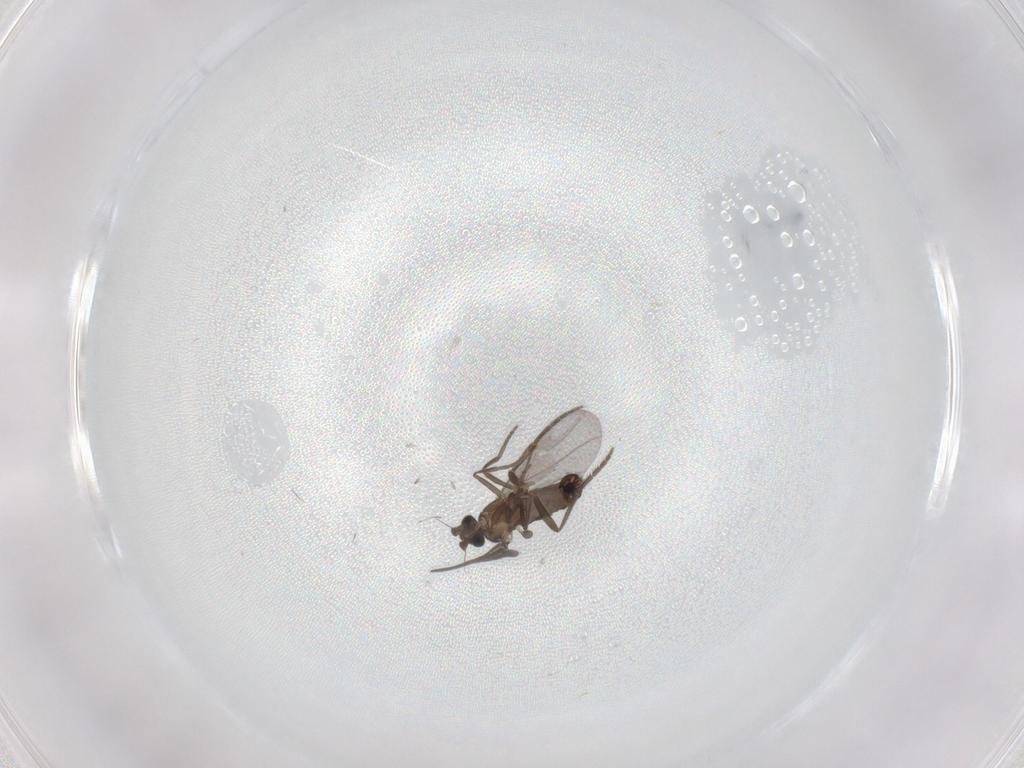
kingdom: Animalia
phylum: Arthropoda
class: Insecta
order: Diptera
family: Phoridae
